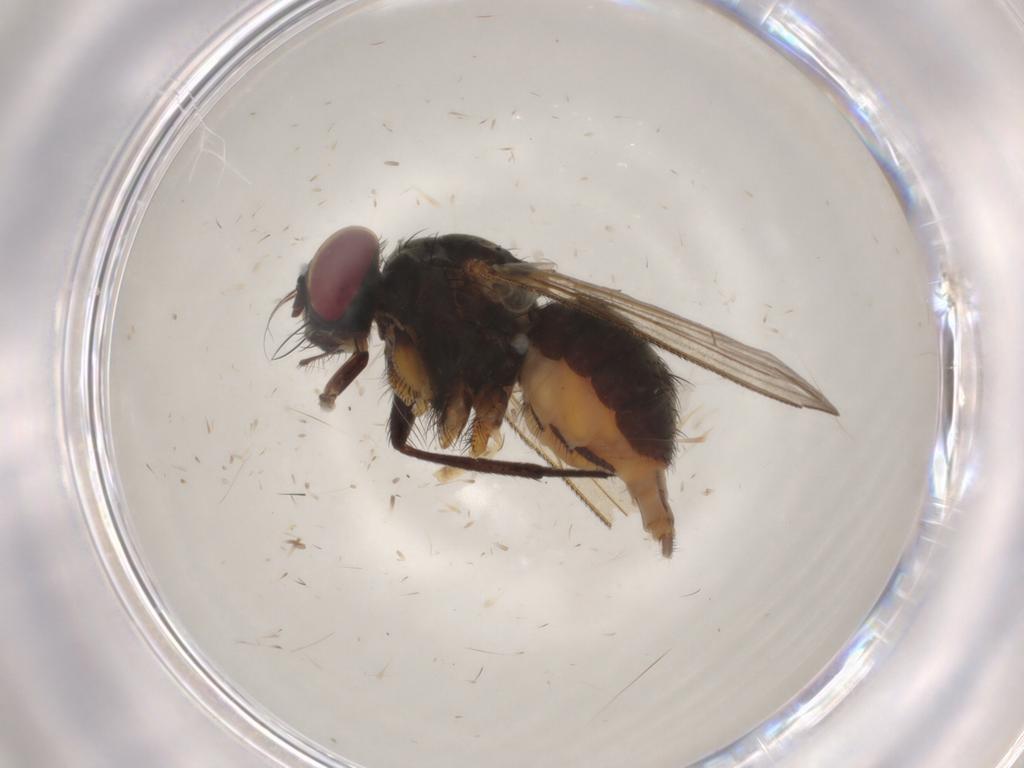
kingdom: Animalia
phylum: Arthropoda
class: Insecta
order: Diptera
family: Muscidae
